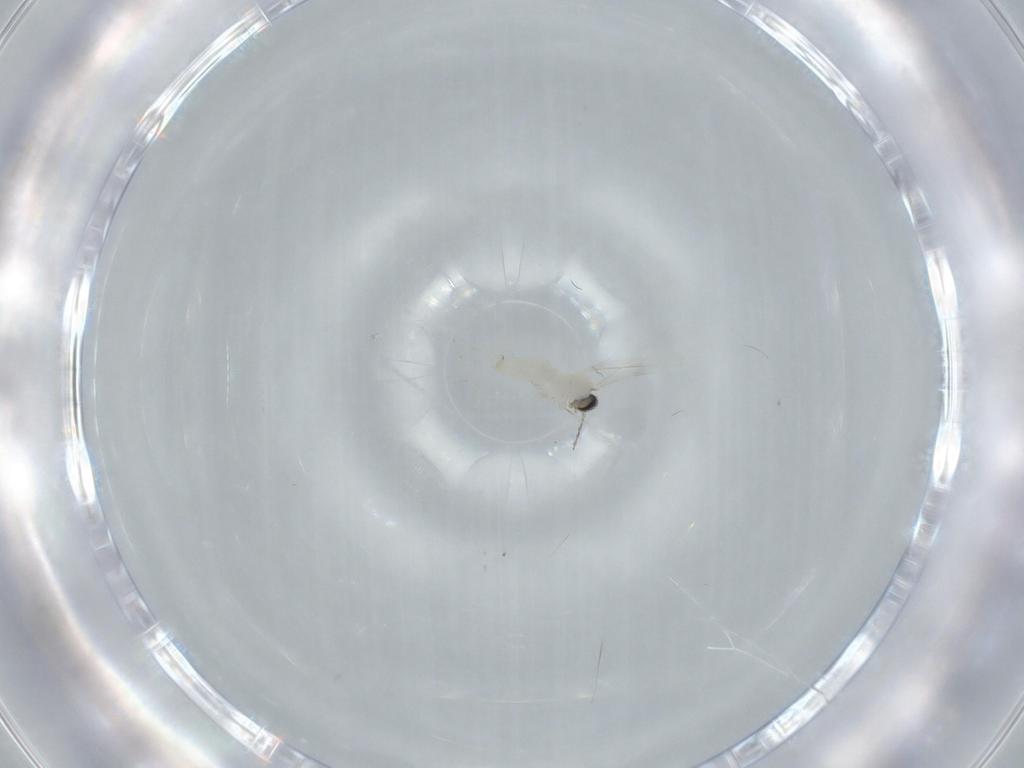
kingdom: Animalia
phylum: Arthropoda
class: Insecta
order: Diptera
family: Cecidomyiidae
